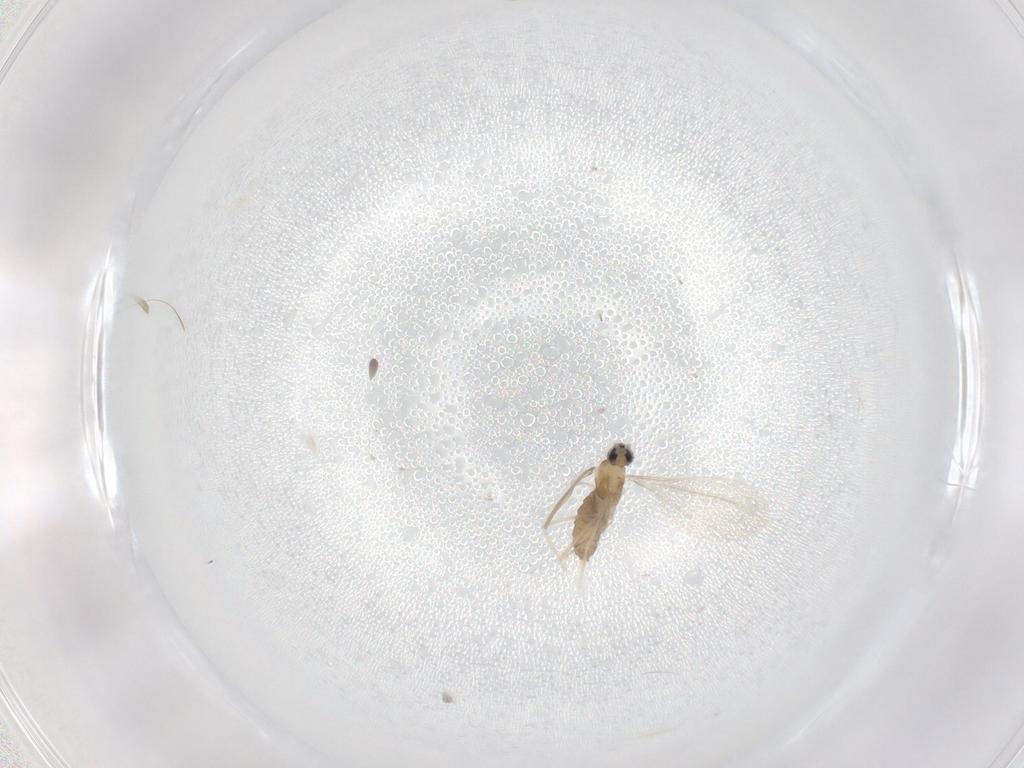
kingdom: Animalia
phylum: Arthropoda
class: Insecta
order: Diptera
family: Cecidomyiidae
